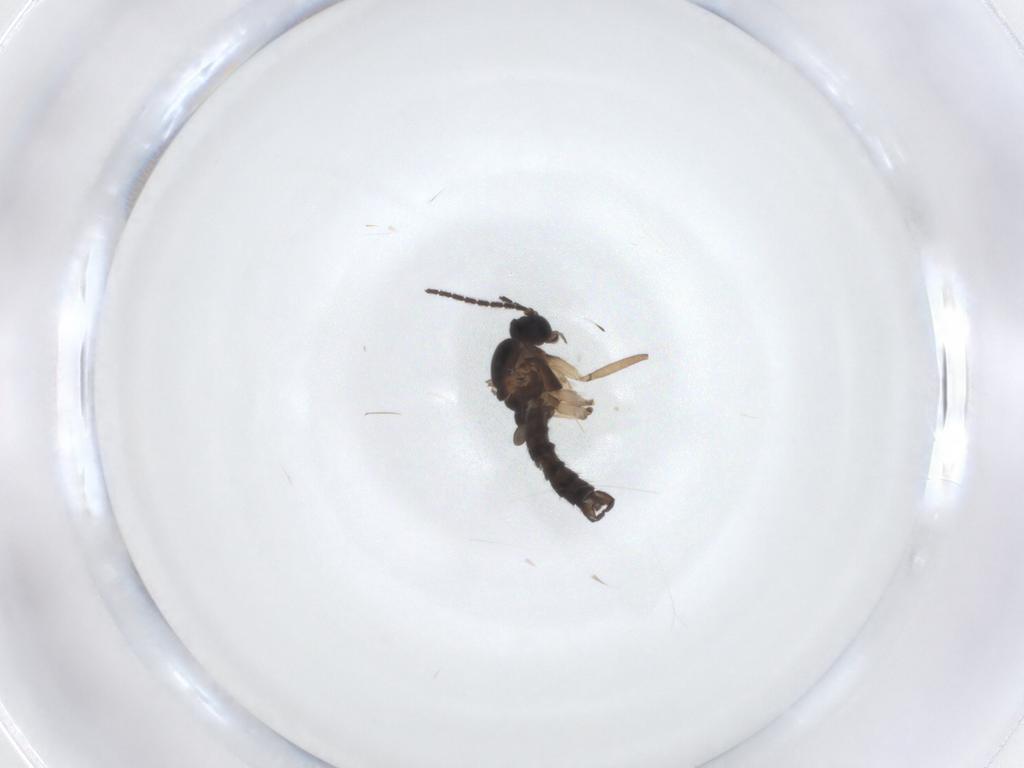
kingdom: Animalia
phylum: Arthropoda
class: Insecta
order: Diptera
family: Sciaridae
